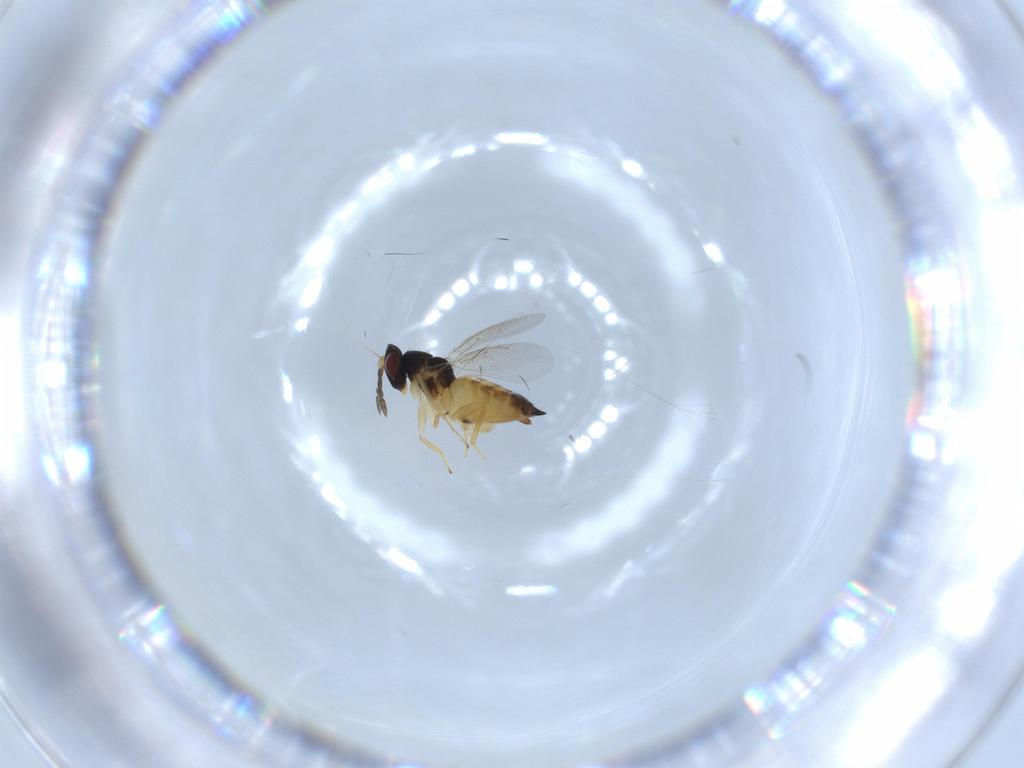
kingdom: Animalia
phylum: Arthropoda
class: Insecta
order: Hymenoptera
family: Eulophidae
